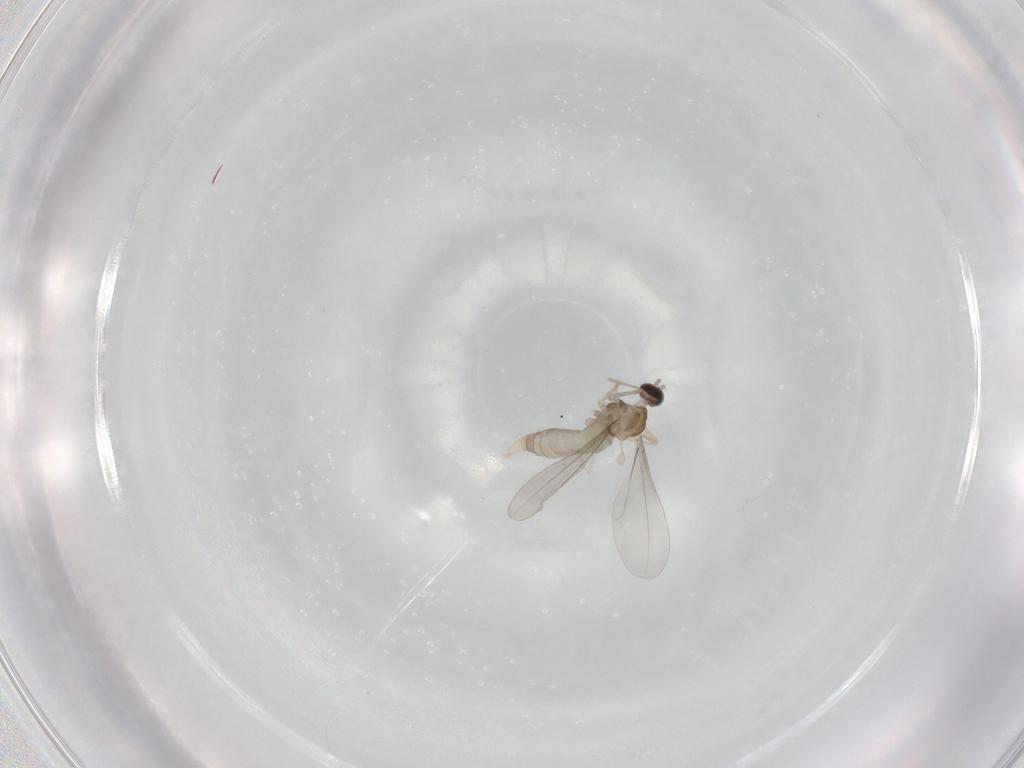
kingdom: Animalia
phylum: Arthropoda
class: Insecta
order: Diptera
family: Cecidomyiidae
